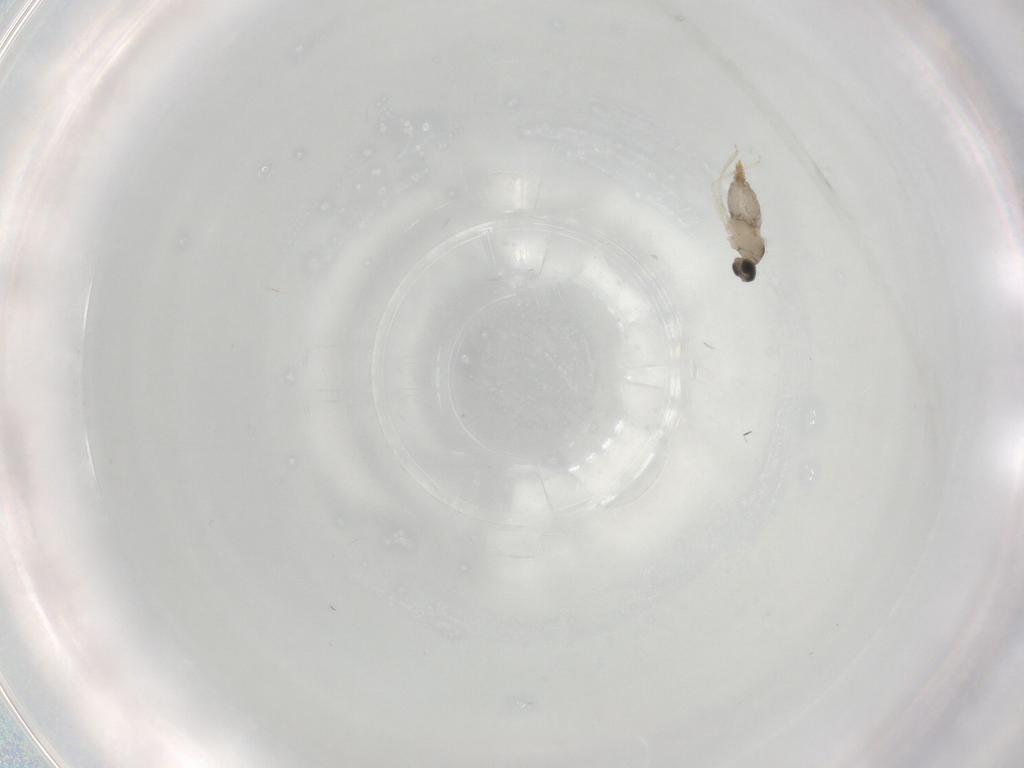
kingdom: Animalia
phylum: Arthropoda
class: Insecta
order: Diptera
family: Cecidomyiidae
